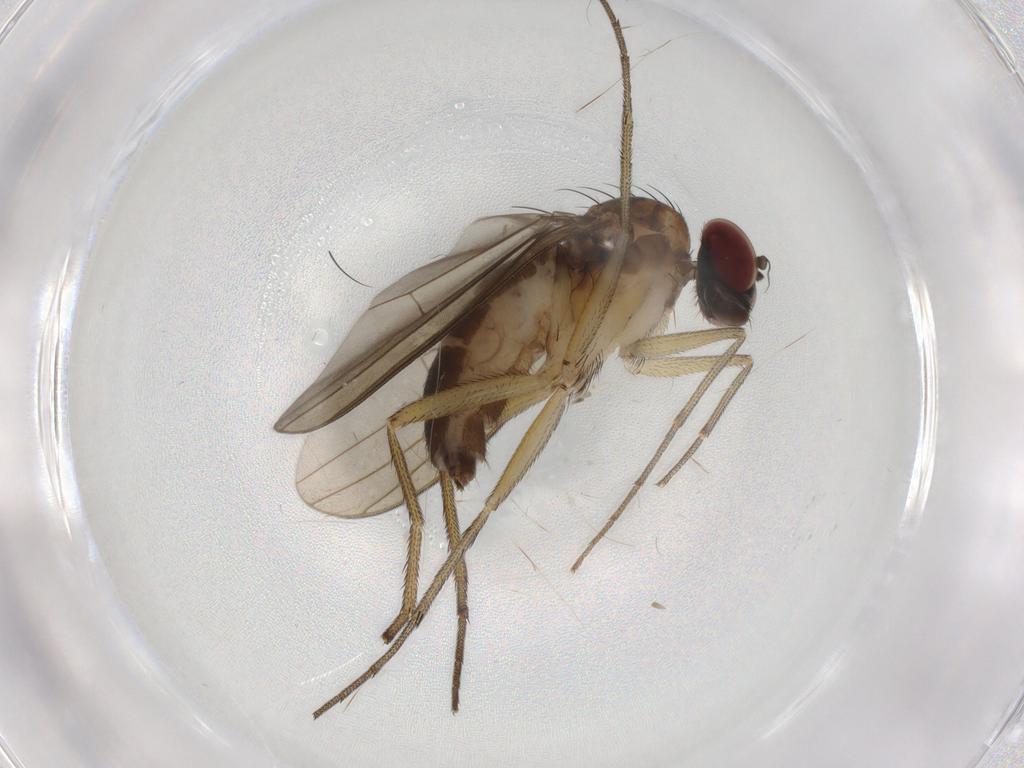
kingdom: Animalia
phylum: Arthropoda
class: Insecta
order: Diptera
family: Dolichopodidae
